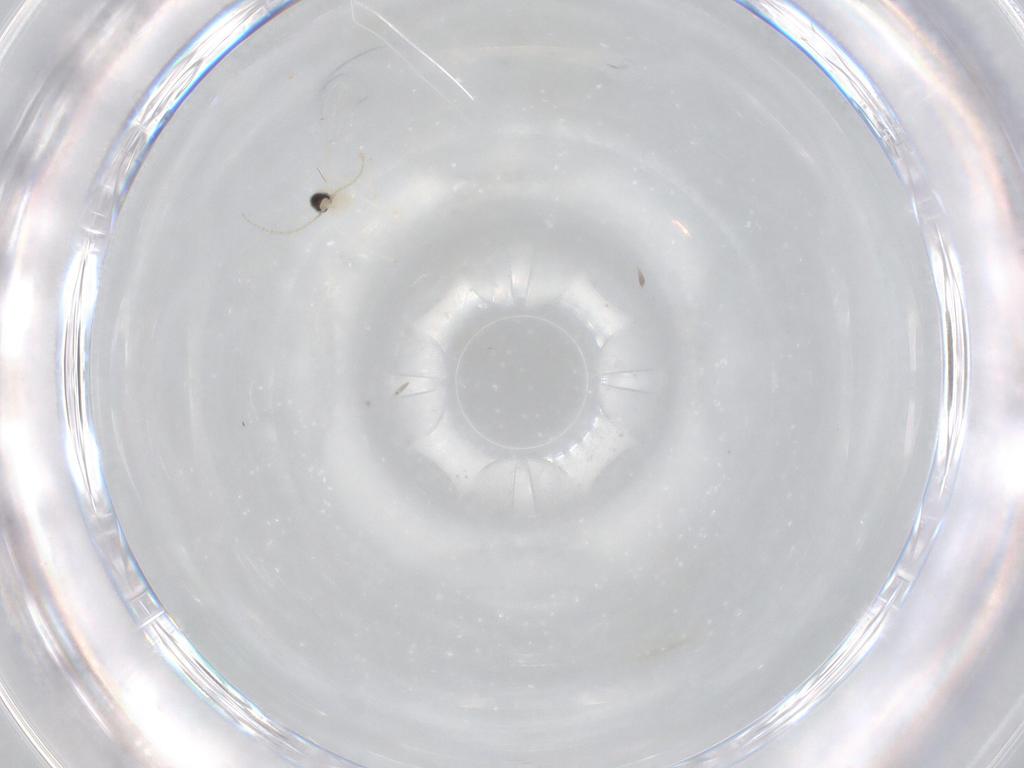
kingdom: Animalia
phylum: Arthropoda
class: Insecta
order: Diptera
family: Cecidomyiidae
